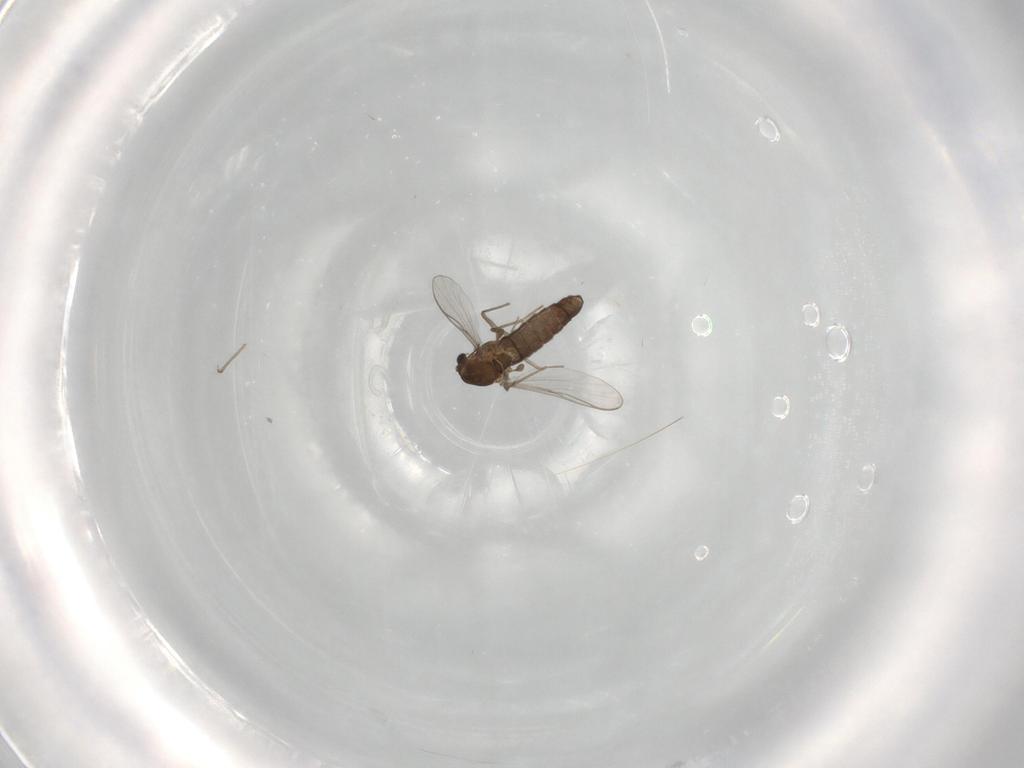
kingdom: Animalia
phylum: Arthropoda
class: Insecta
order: Diptera
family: Chironomidae
